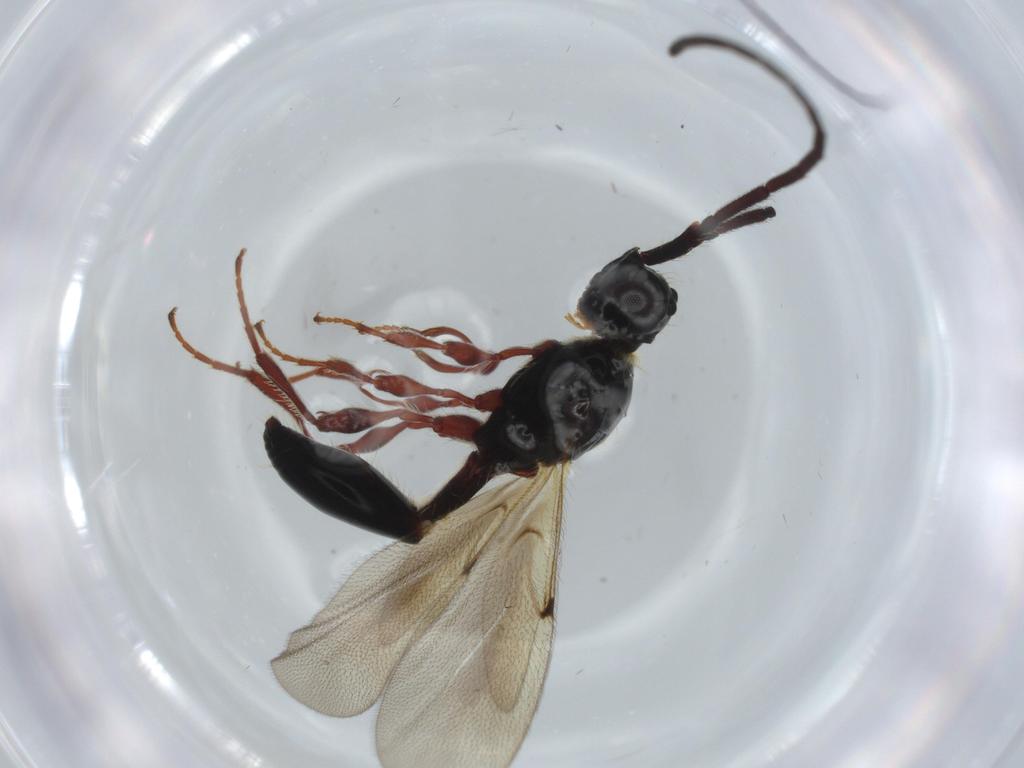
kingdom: Animalia
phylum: Arthropoda
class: Insecta
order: Hymenoptera
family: Diapriidae
